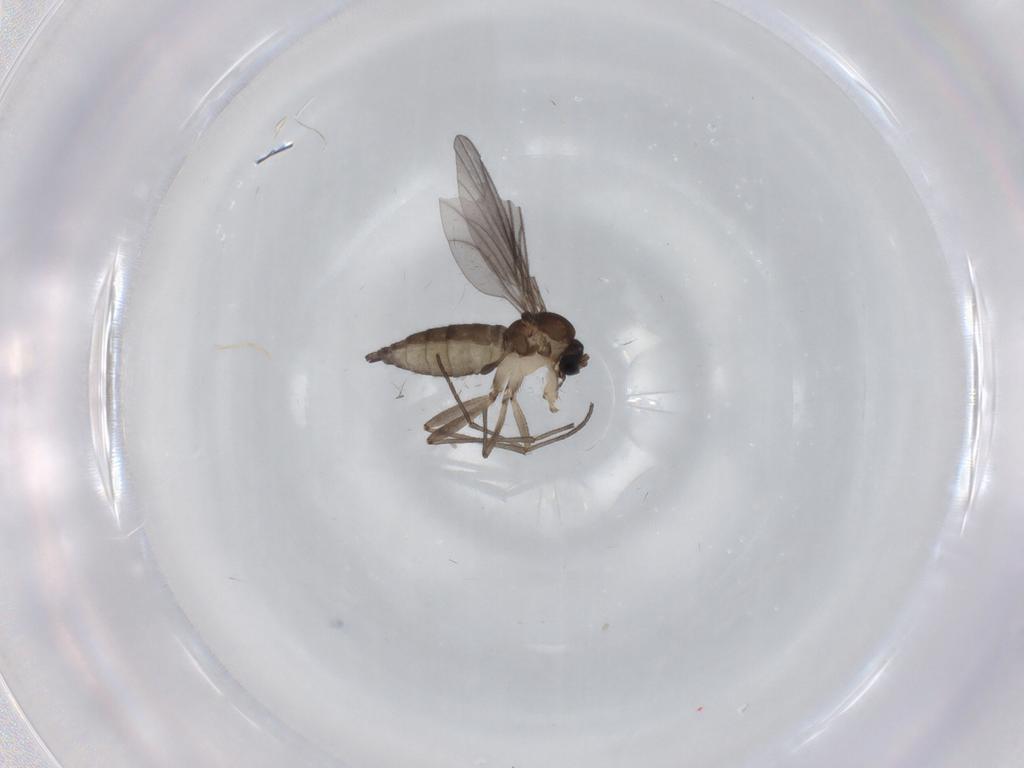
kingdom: Animalia
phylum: Arthropoda
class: Insecta
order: Diptera
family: Sciaridae
